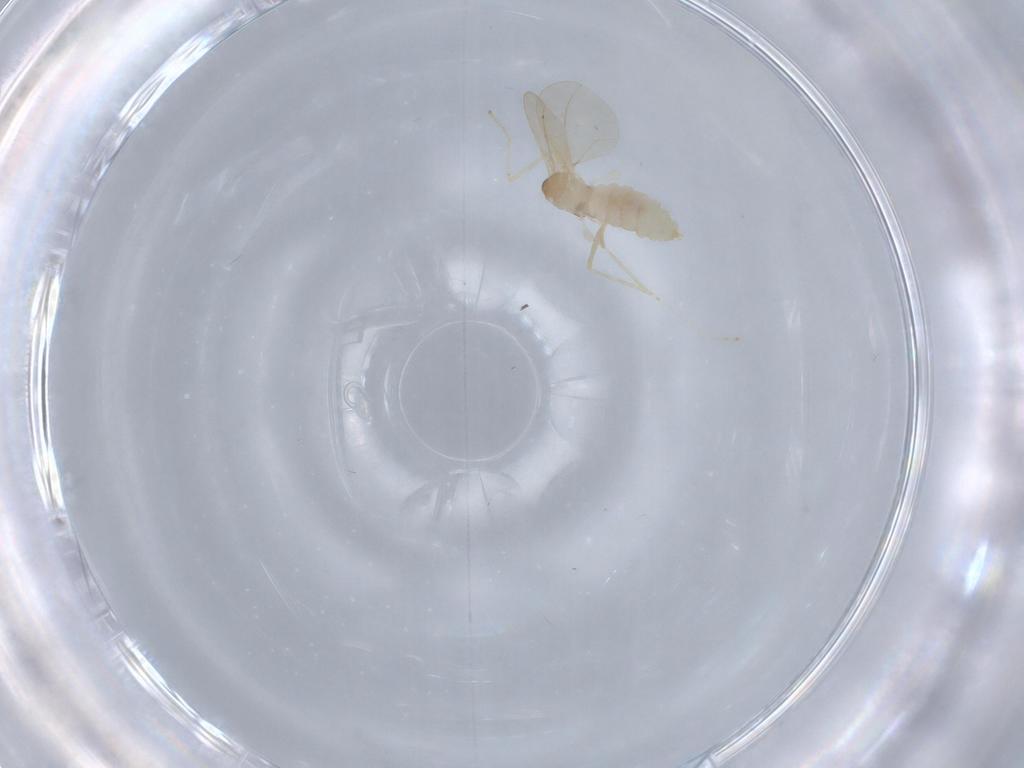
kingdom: Animalia
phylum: Arthropoda
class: Insecta
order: Diptera
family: Cecidomyiidae
